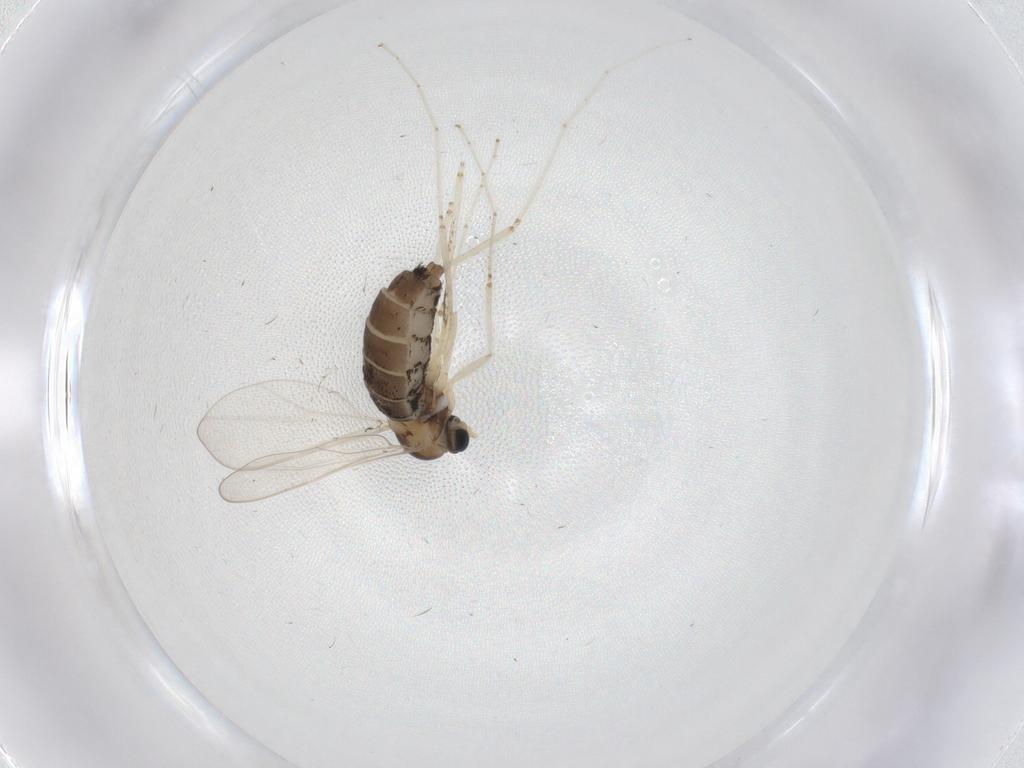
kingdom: Animalia
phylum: Arthropoda
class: Insecta
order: Diptera
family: Cecidomyiidae
